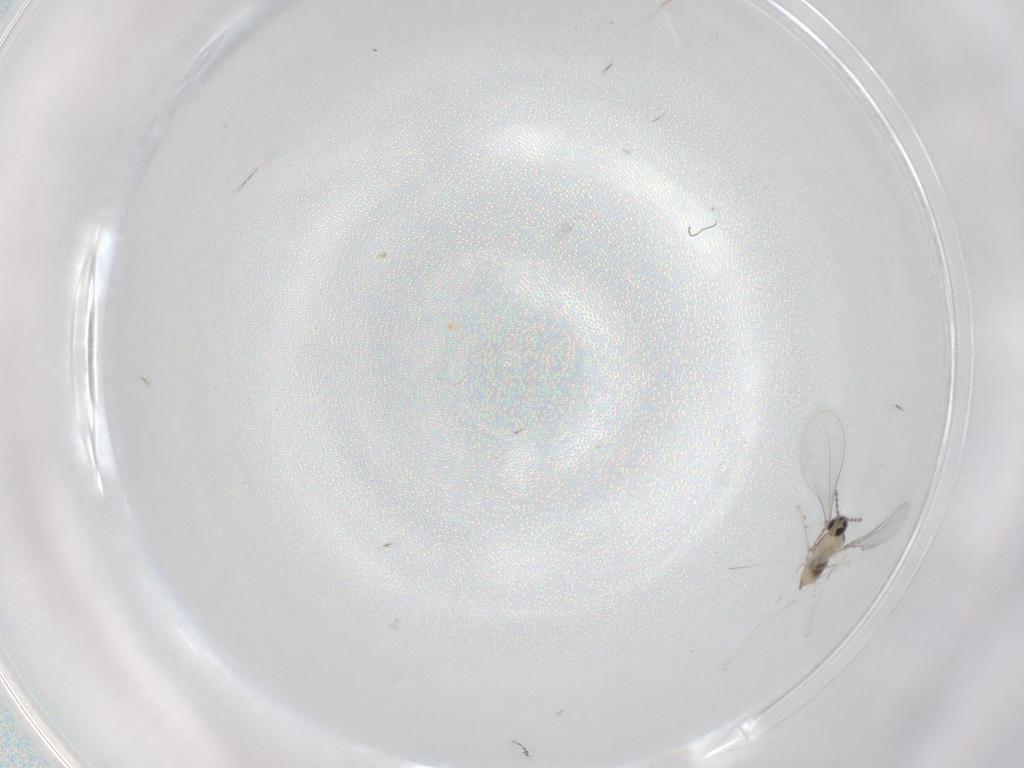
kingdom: Animalia
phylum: Arthropoda
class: Insecta
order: Diptera
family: Cecidomyiidae
